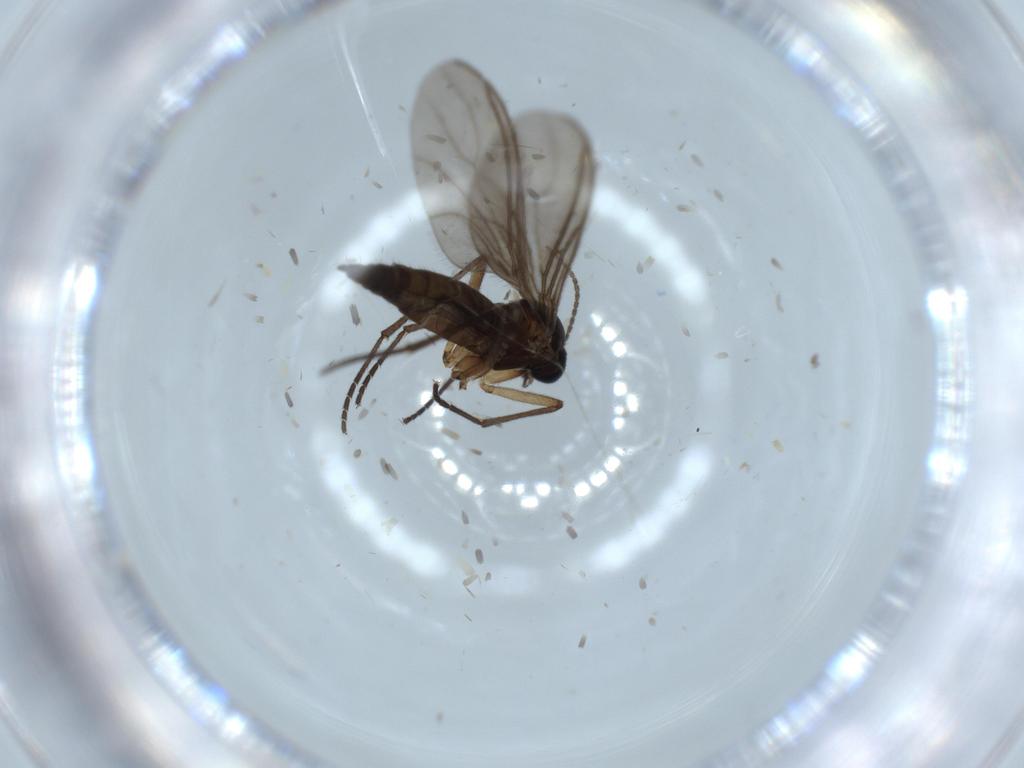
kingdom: Animalia
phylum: Arthropoda
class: Insecta
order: Diptera
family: Sciaridae
